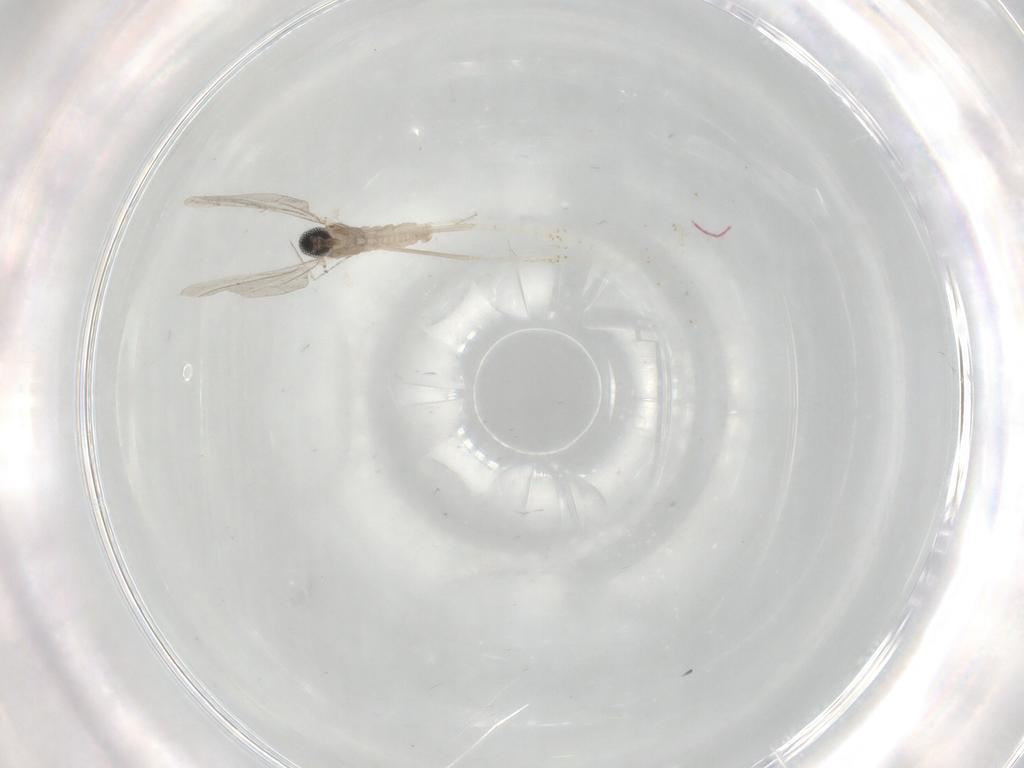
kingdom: Animalia
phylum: Arthropoda
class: Insecta
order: Diptera
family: Cecidomyiidae
